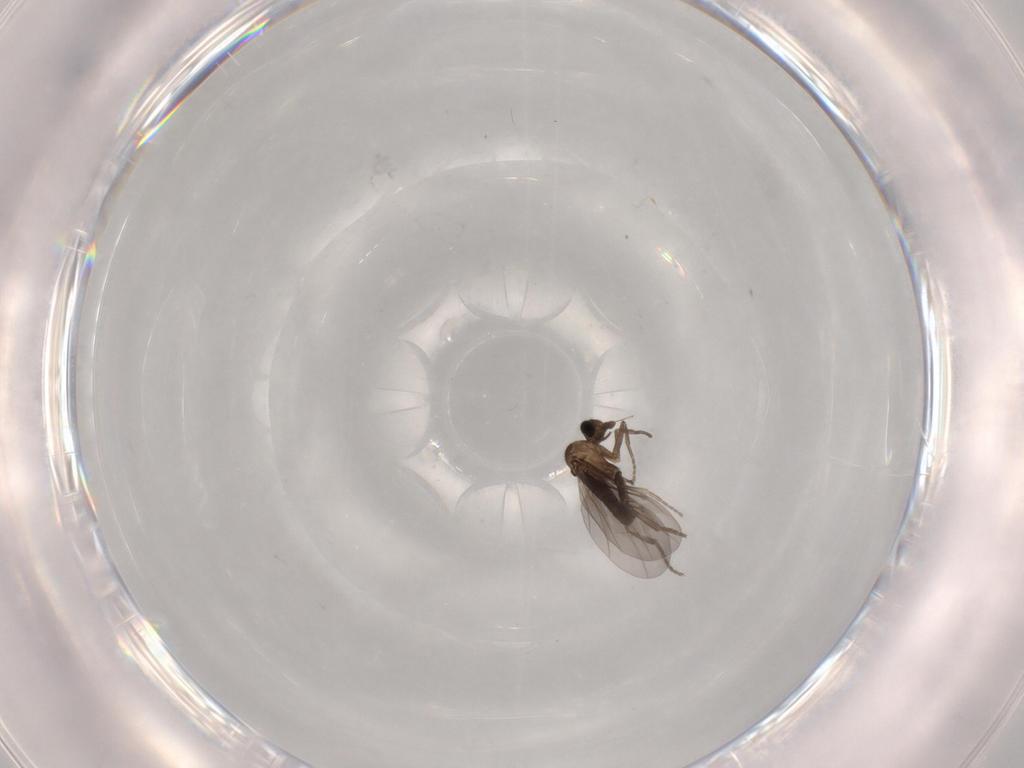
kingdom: Animalia
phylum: Arthropoda
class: Insecta
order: Diptera
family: Phoridae
